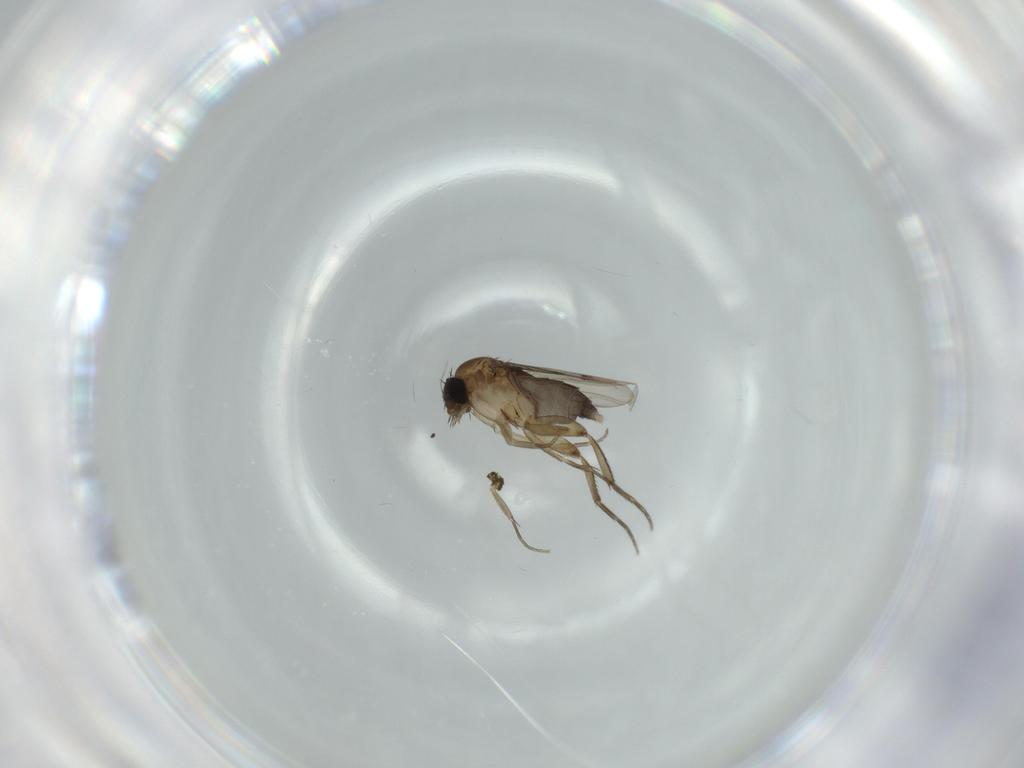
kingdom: Animalia
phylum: Arthropoda
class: Insecta
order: Diptera
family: Phoridae
